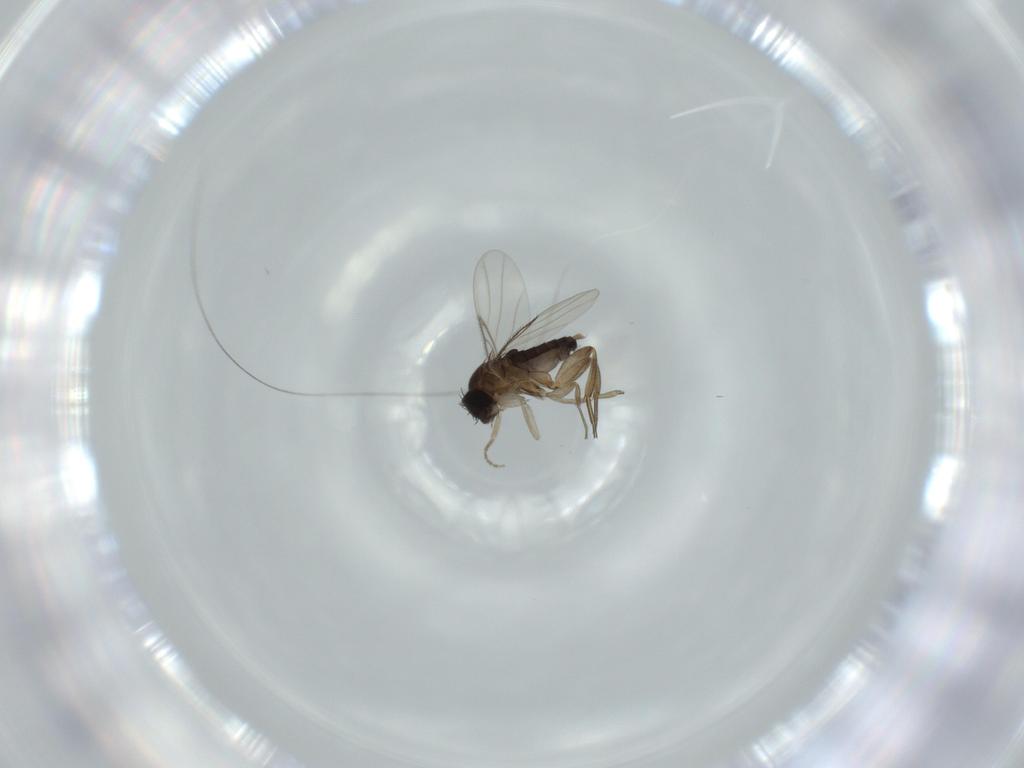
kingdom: Animalia
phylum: Arthropoda
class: Insecta
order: Diptera
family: Phoridae
